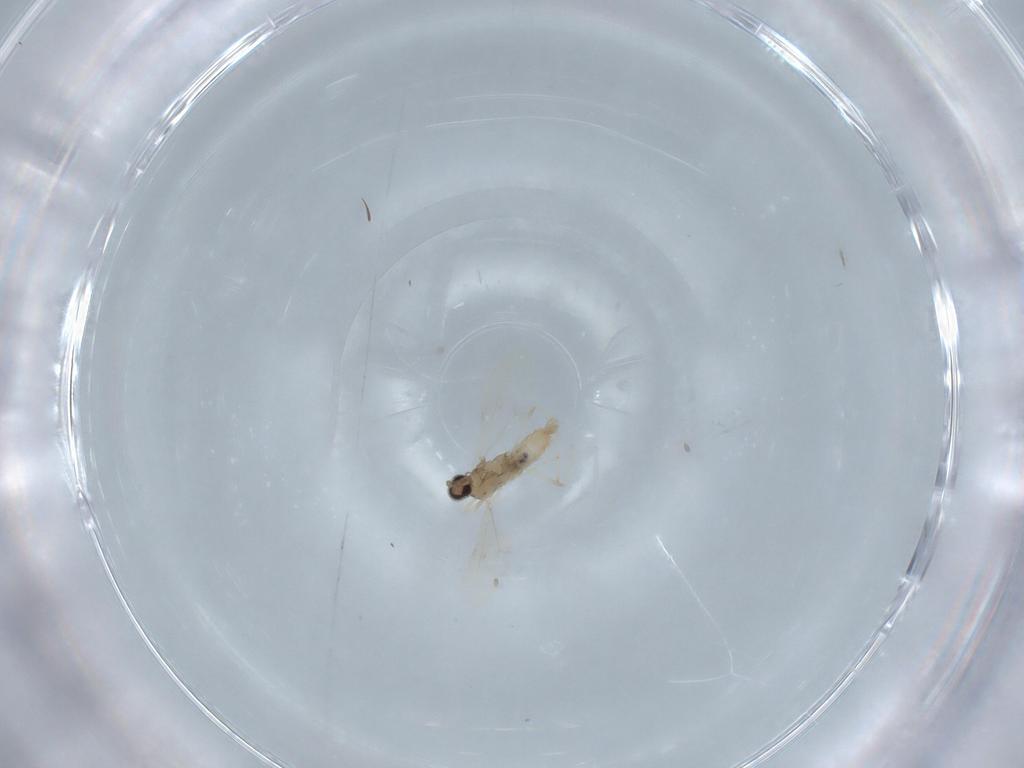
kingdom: Animalia
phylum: Arthropoda
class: Insecta
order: Diptera
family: Cecidomyiidae
